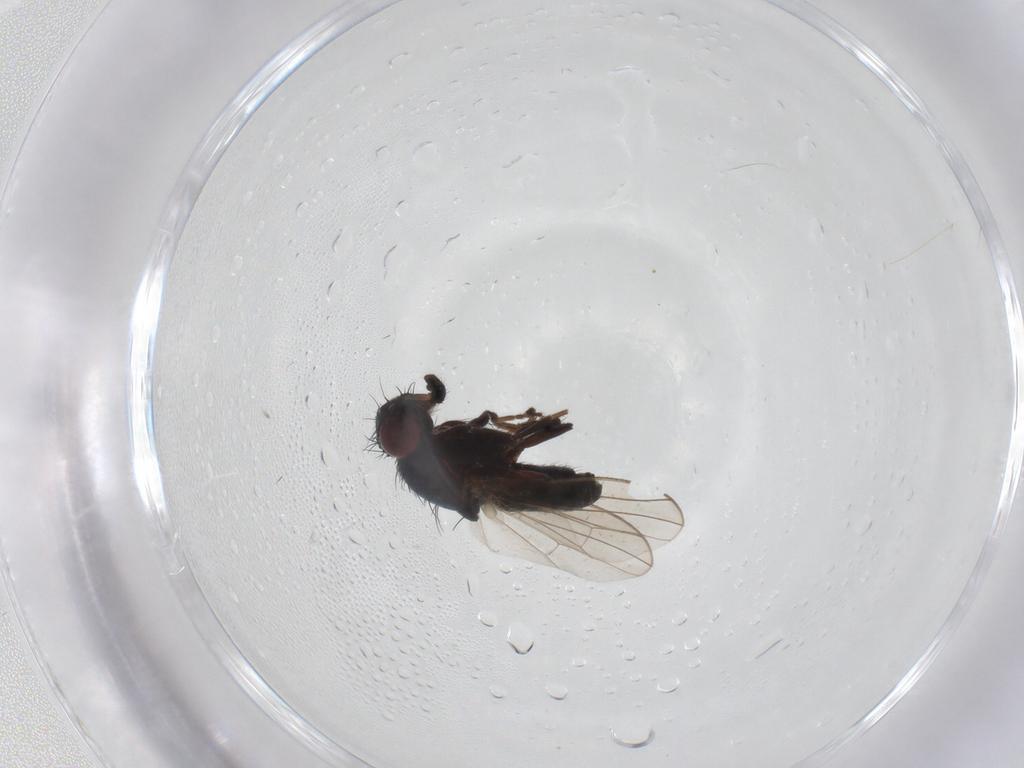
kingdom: Animalia
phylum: Arthropoda
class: Insecta
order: Diptera
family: Carnidae
